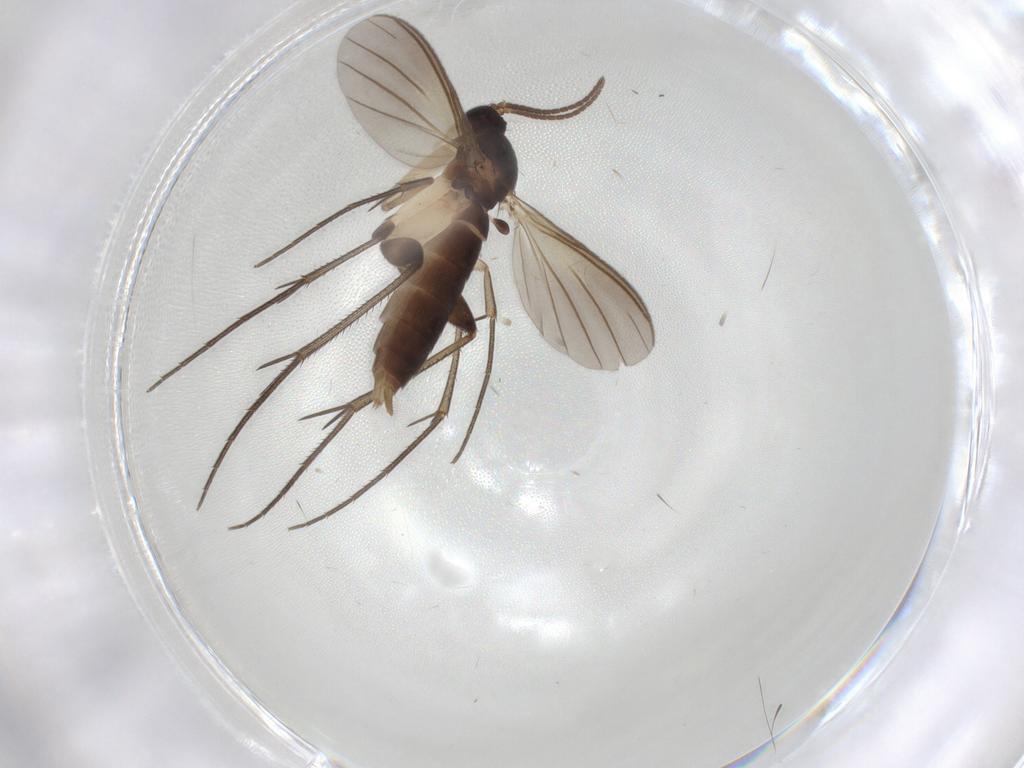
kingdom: Animalia
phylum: Arthropoda
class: Insecta
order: Diptera
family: Mycetophilidae
